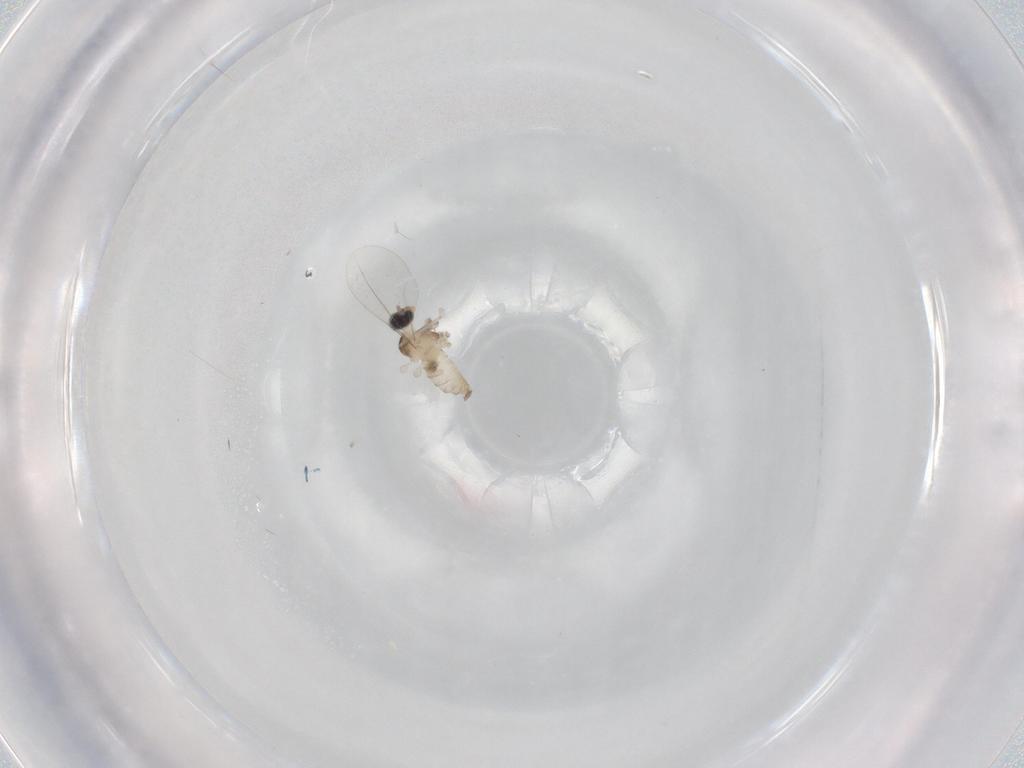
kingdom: Animalia
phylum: Arthropoda
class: Insecta
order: Diptera
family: Cecidomyiidae
